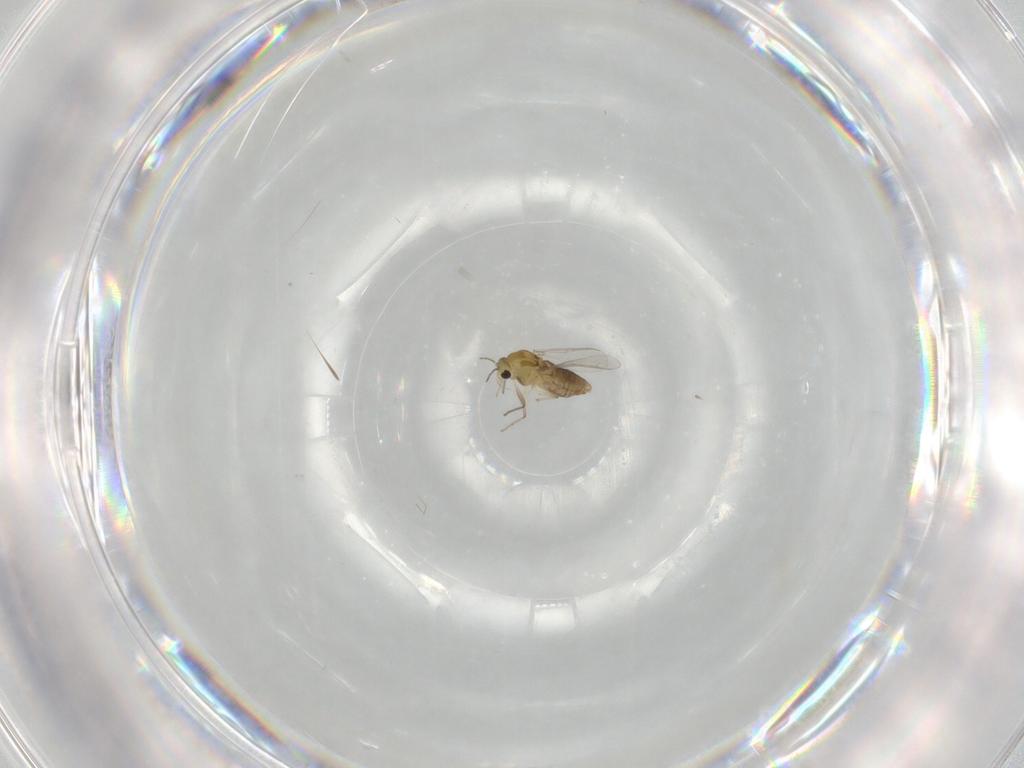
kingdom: Animalia
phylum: Arthropoda
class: Insecta
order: Diptera
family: Chironomidae
